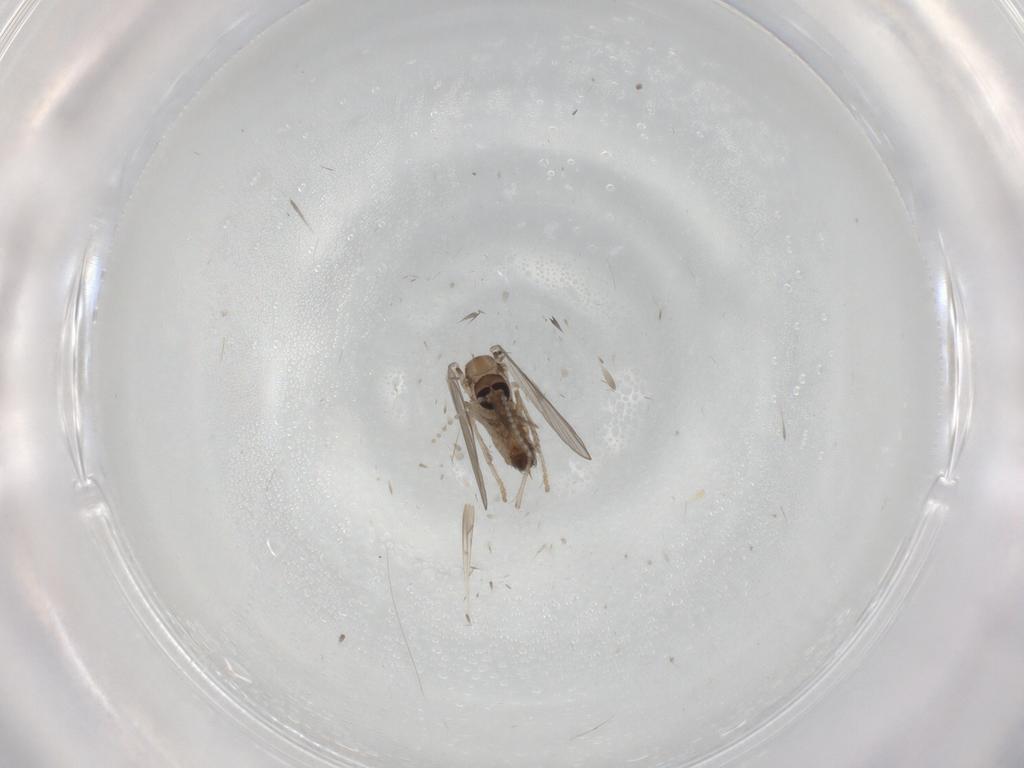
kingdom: Animalia
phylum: Arthropoda
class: Insecta
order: Diptera
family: Psychodidae
